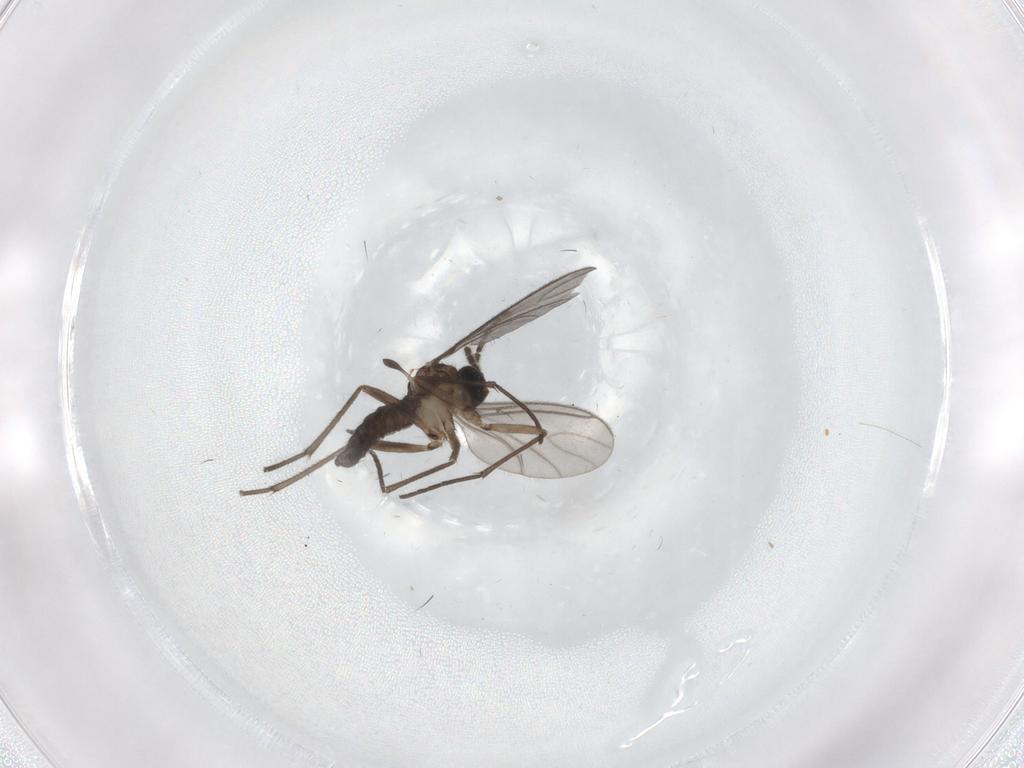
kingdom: Animalia
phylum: Arthropoda
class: Insecta
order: Diptera
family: Sciaridae
